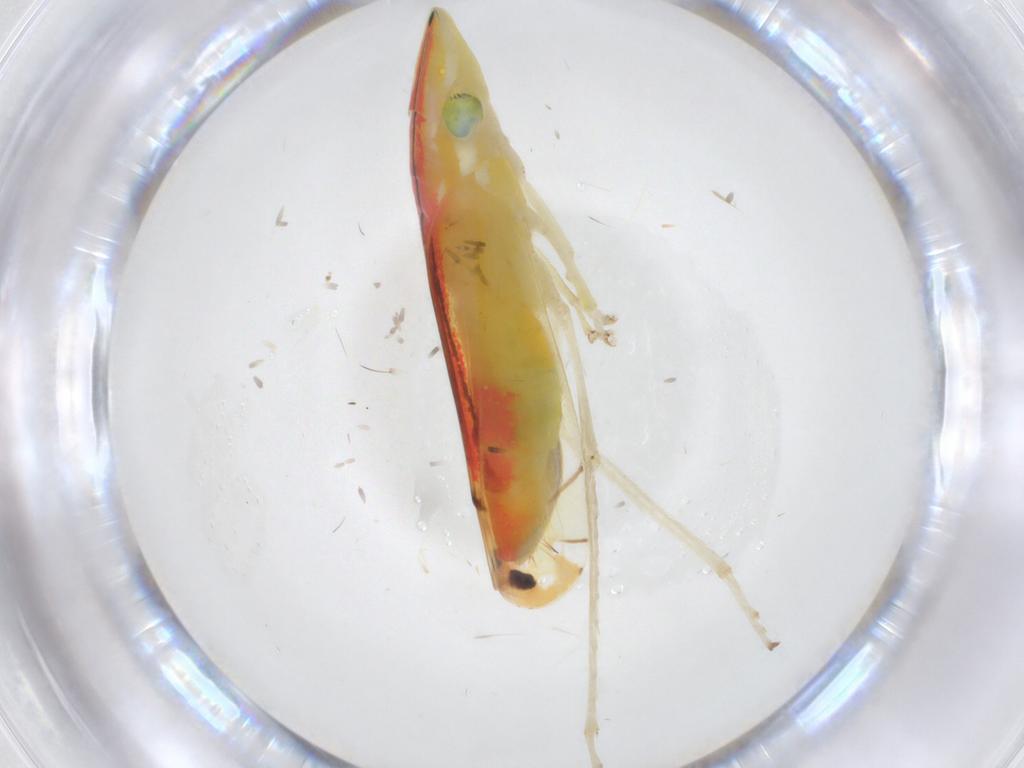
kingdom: Animalia
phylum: Arthropoda
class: Insecta
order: Hemiptera
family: Cicadellidae
